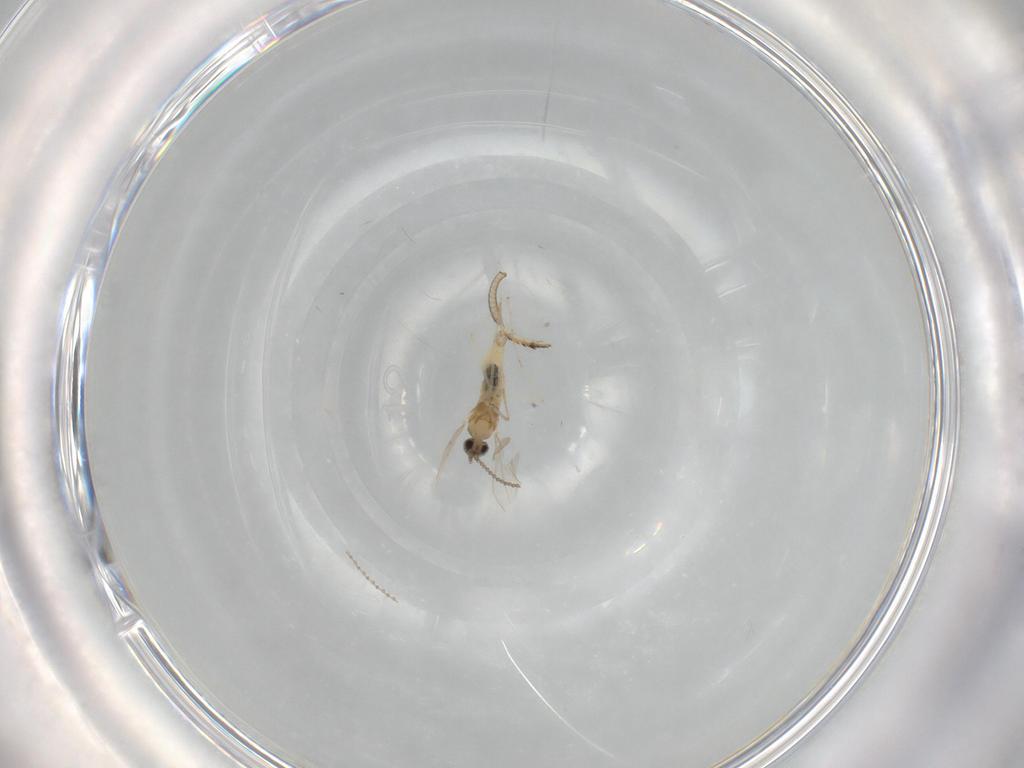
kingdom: Animalia
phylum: Arthropoda
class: Insecta
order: Diptera
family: Cecidomyiidae
